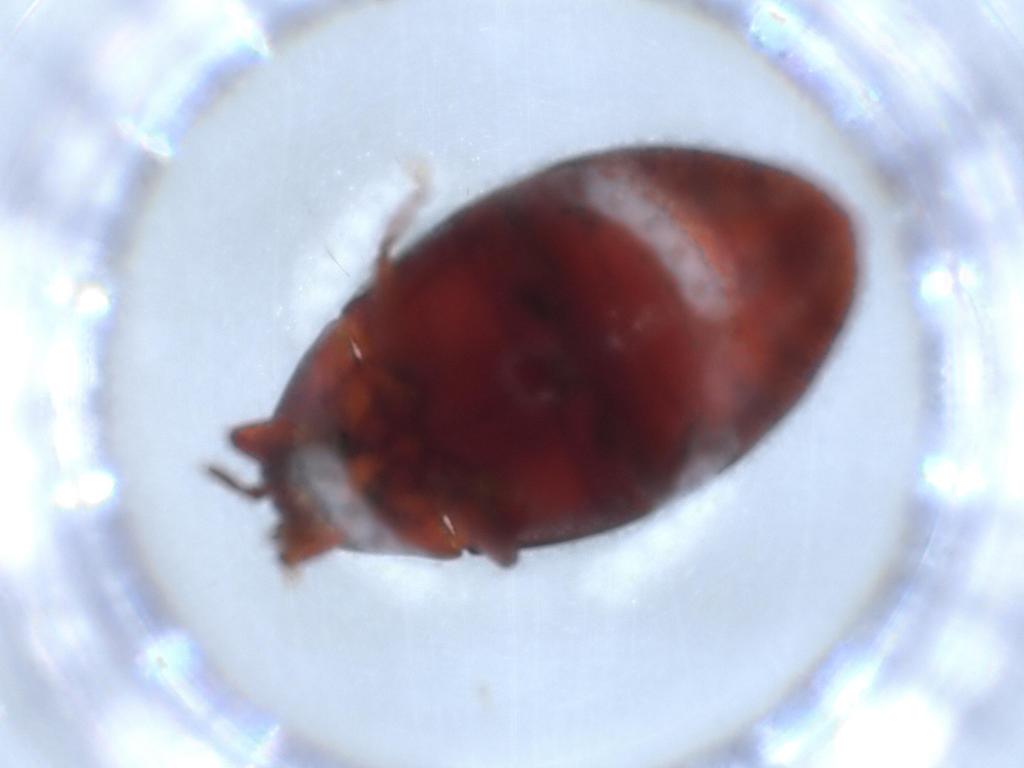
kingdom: Animalia
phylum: Arthropoda
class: Insecta
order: Coleoptera
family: Chelonariidae
